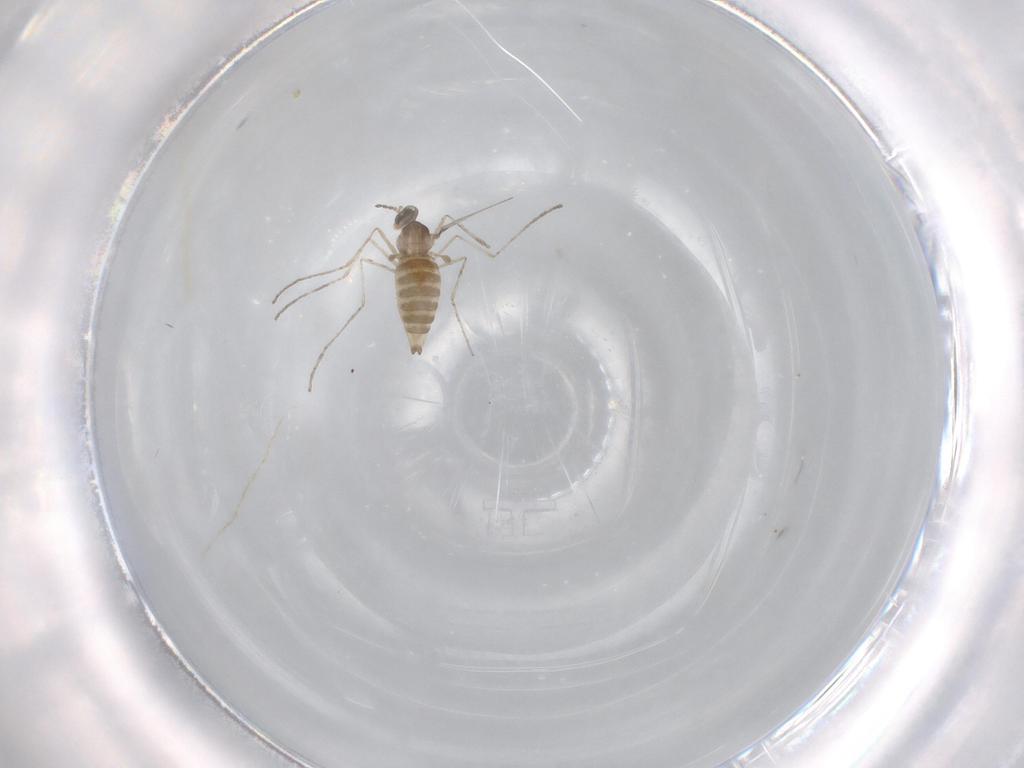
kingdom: Animalia
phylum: Arthropoda
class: Insecta
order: Diptera
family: Cecidomyiidae
